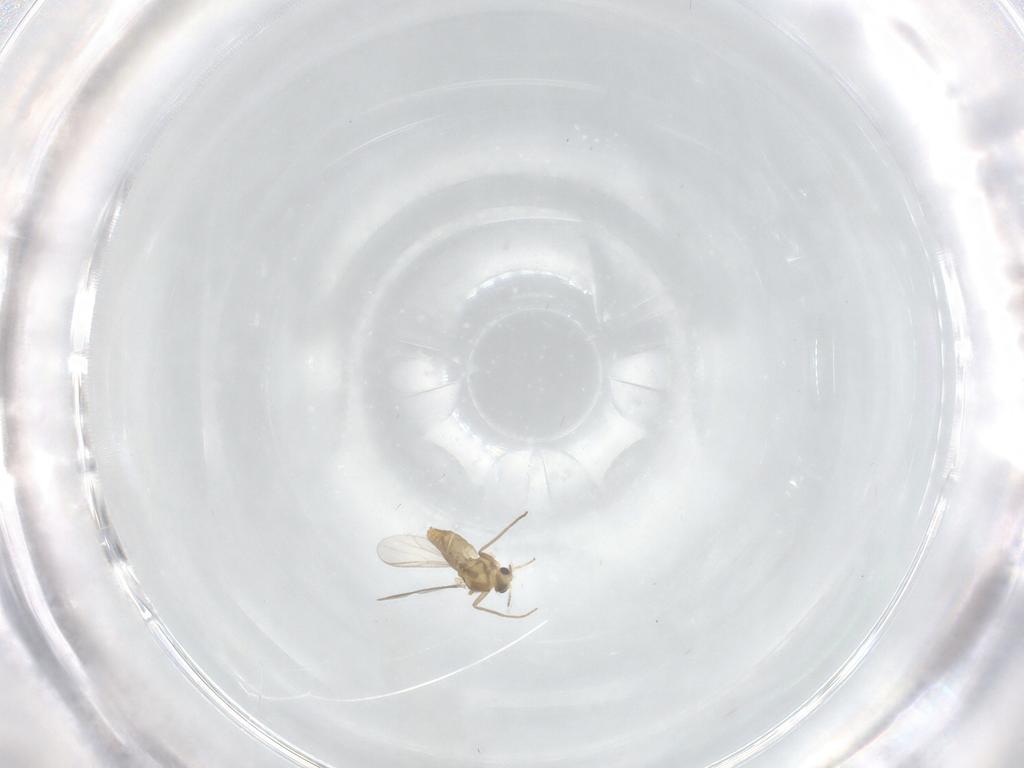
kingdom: Animalia
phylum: Arthropoda
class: Insecta
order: Diptera
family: Chironomidae
